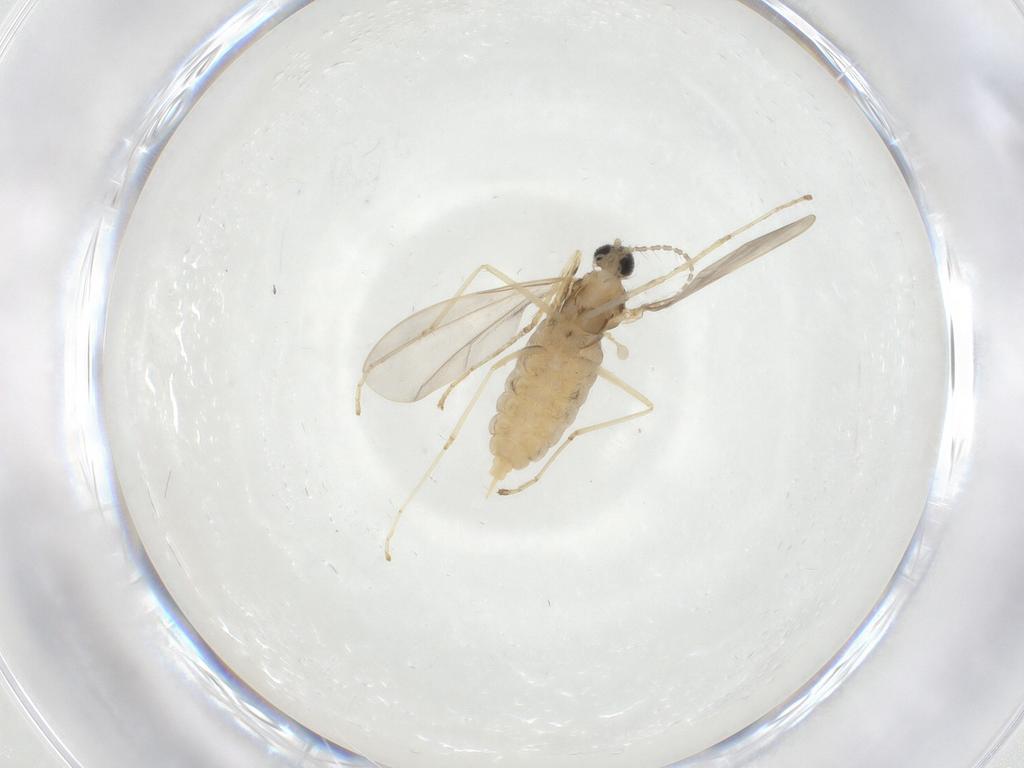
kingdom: Animalia
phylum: Arthropoda
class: Insecta
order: Diptera
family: Cecidomyiidae
